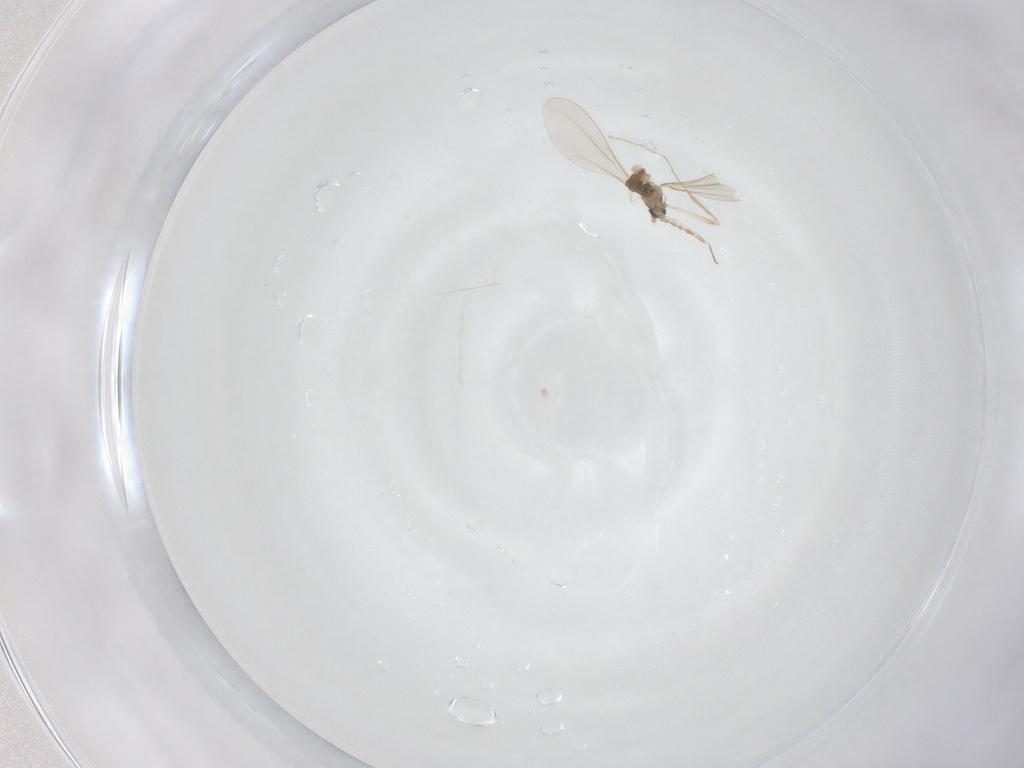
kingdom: Animalia
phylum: Arthropoda
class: Insecta
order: Diptera
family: Cecidomyiidae
